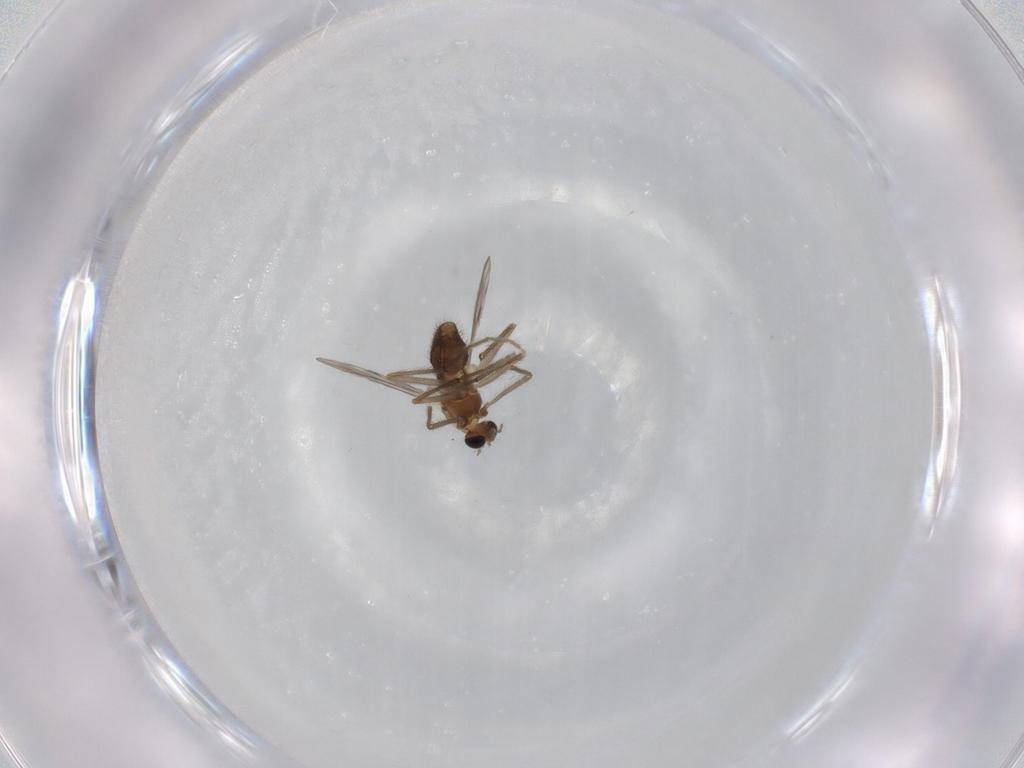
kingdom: Animalia
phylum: Arthropoda
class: Insecta
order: Diptera
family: Chironomidae
